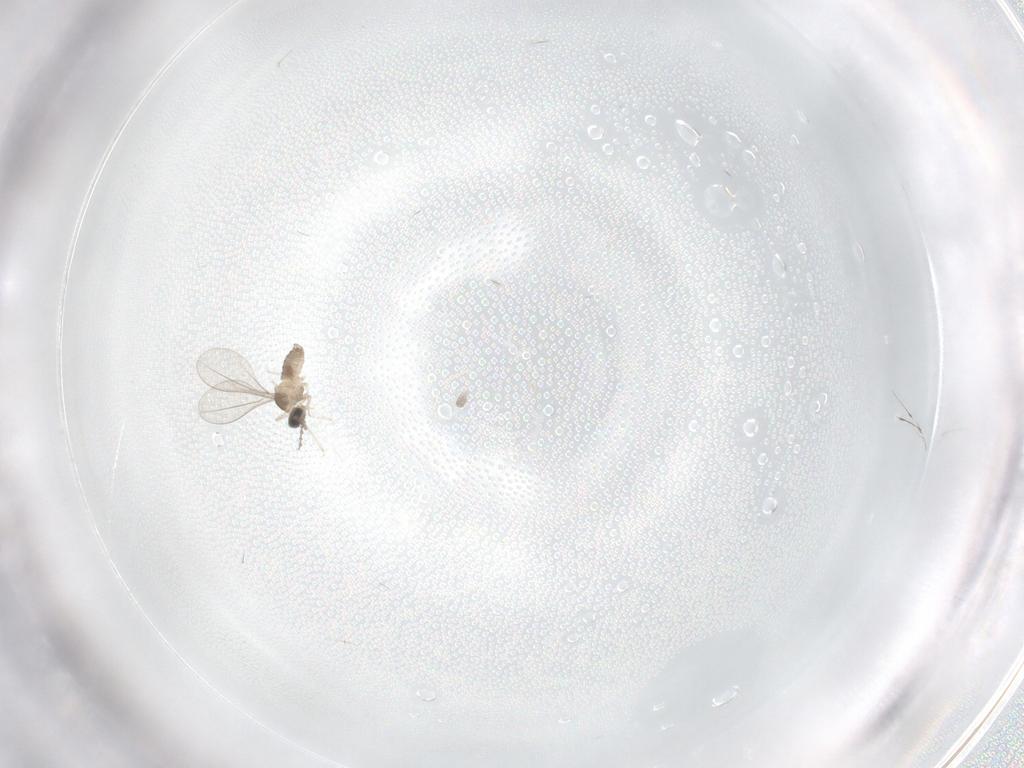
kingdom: Animalia
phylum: Arthropoda
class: Insecta
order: Diptera
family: Cecidomyiidae
